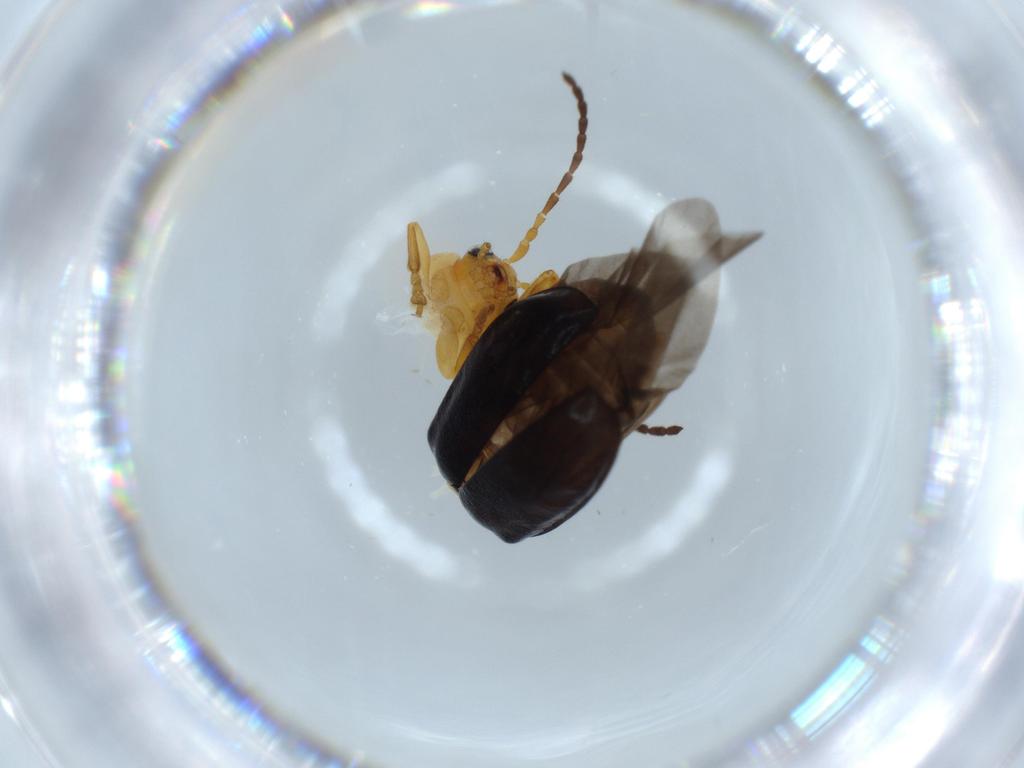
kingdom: Animalia
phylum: Arthropoda
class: Insecta
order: Coleoptera
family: Chrysomelidae
